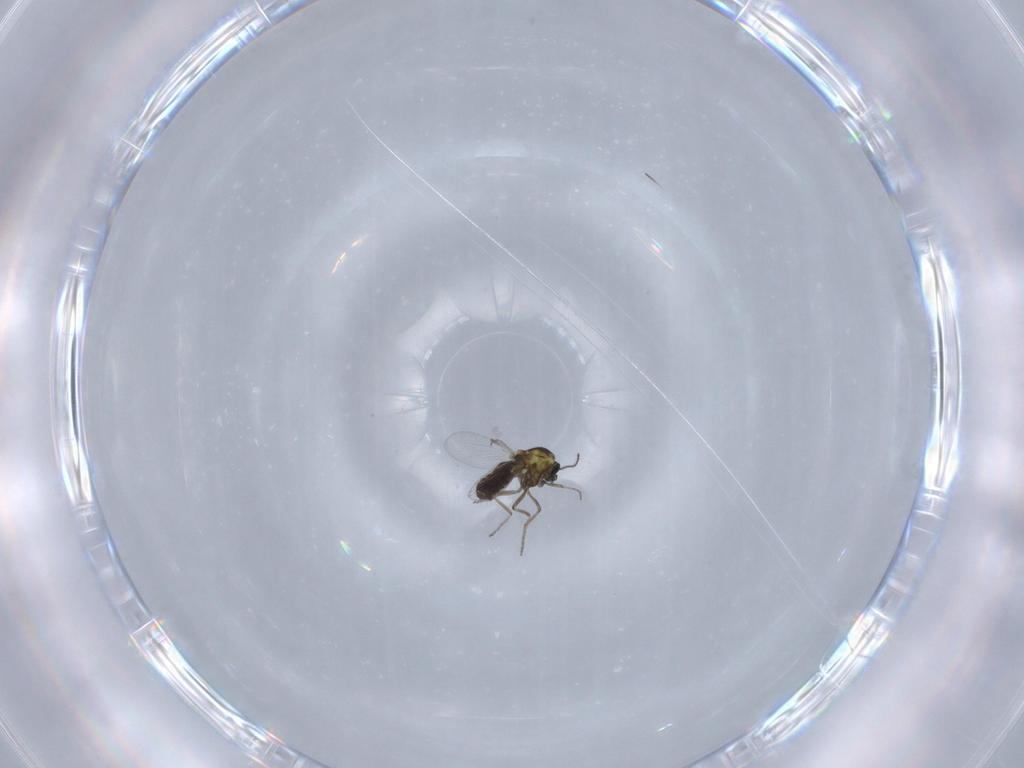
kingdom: Animalia
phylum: Arthropoda
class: Insecta
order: Diptera
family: Ceratopogonidae
